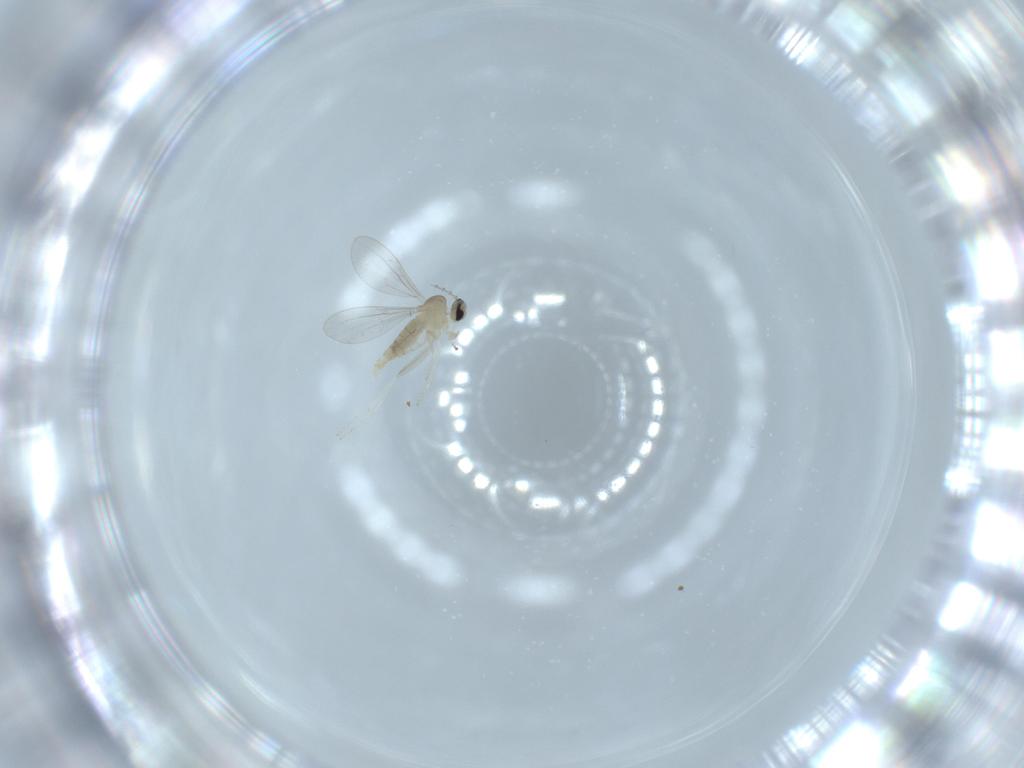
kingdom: Animalia
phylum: Arthropoda
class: Insecta
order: Diptera
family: Cecidomyiidae
